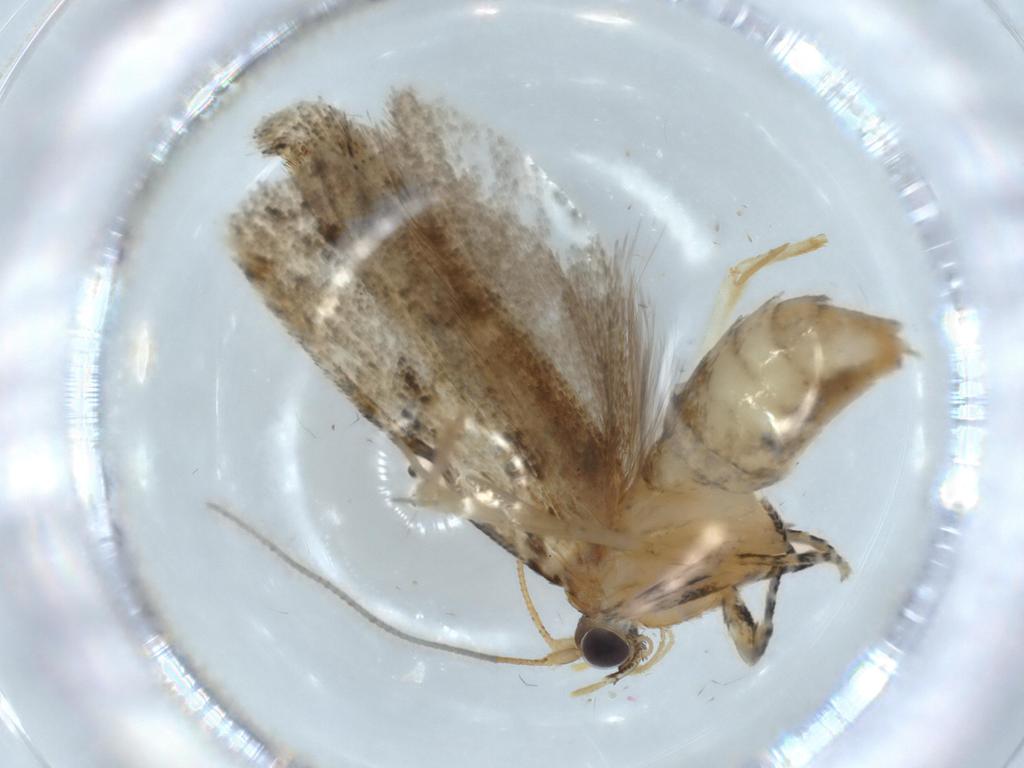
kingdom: Animalia
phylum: Arthropoda
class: Insecta
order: Lepidoptera
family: Tineidae
